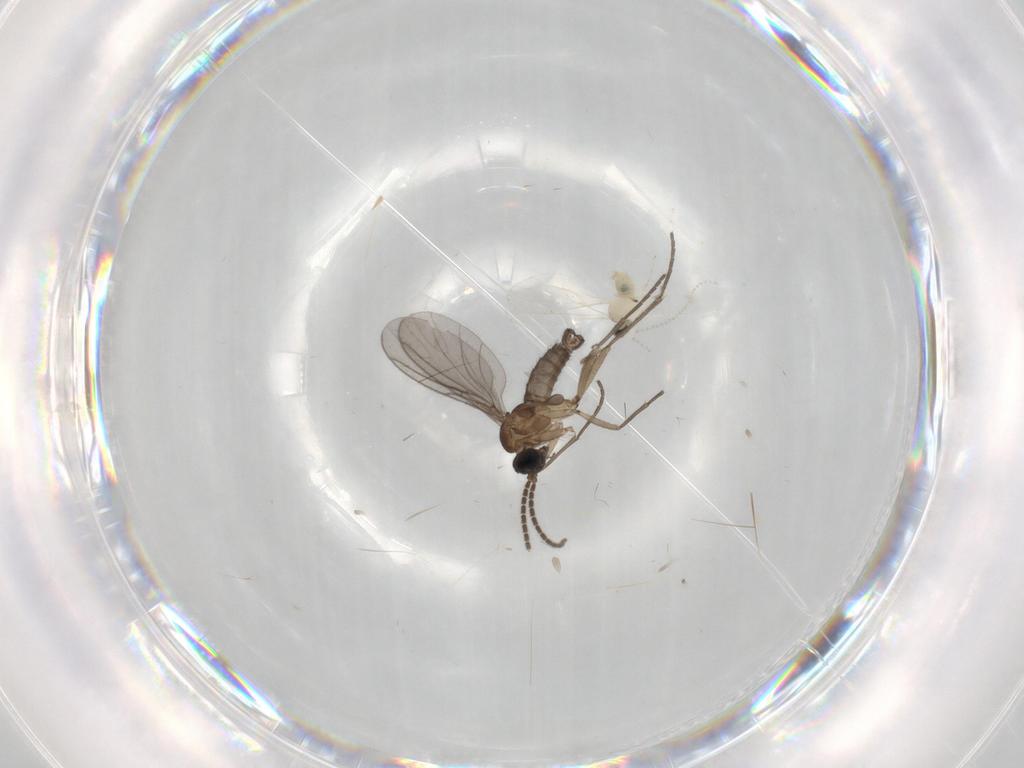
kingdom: Animalia
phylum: Arthropoda
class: Insecta
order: Diptera
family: Cecidomyiidae
